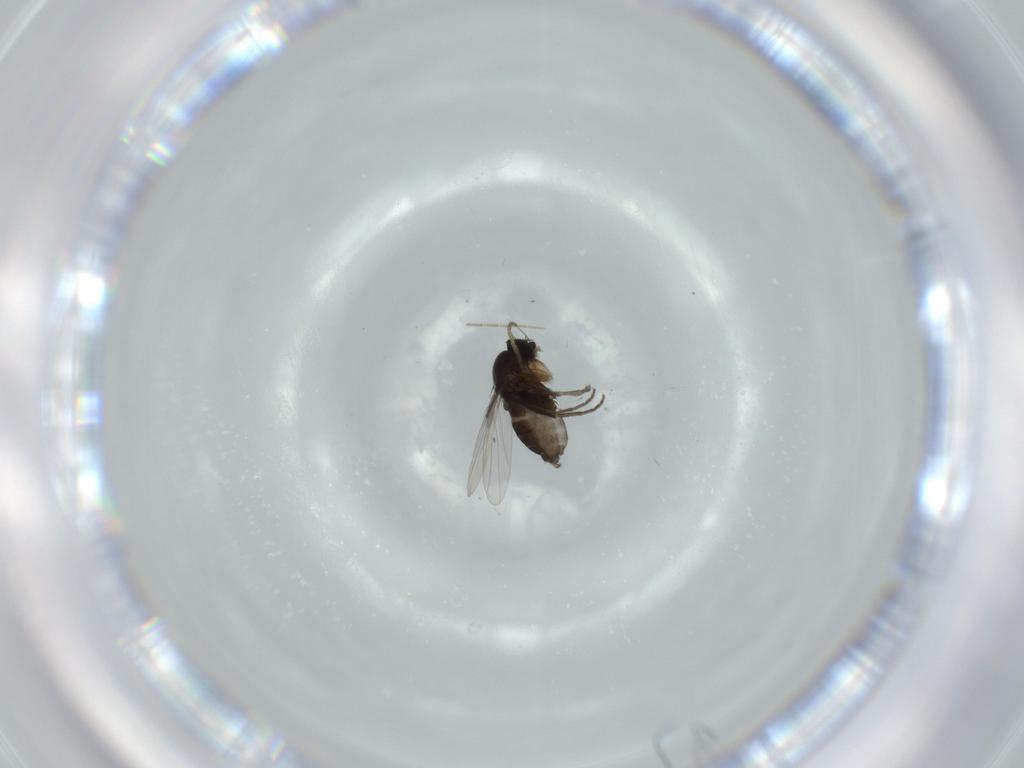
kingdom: Animalia
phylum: Arthropoda
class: Insecta
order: Diptera
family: Phoridae
